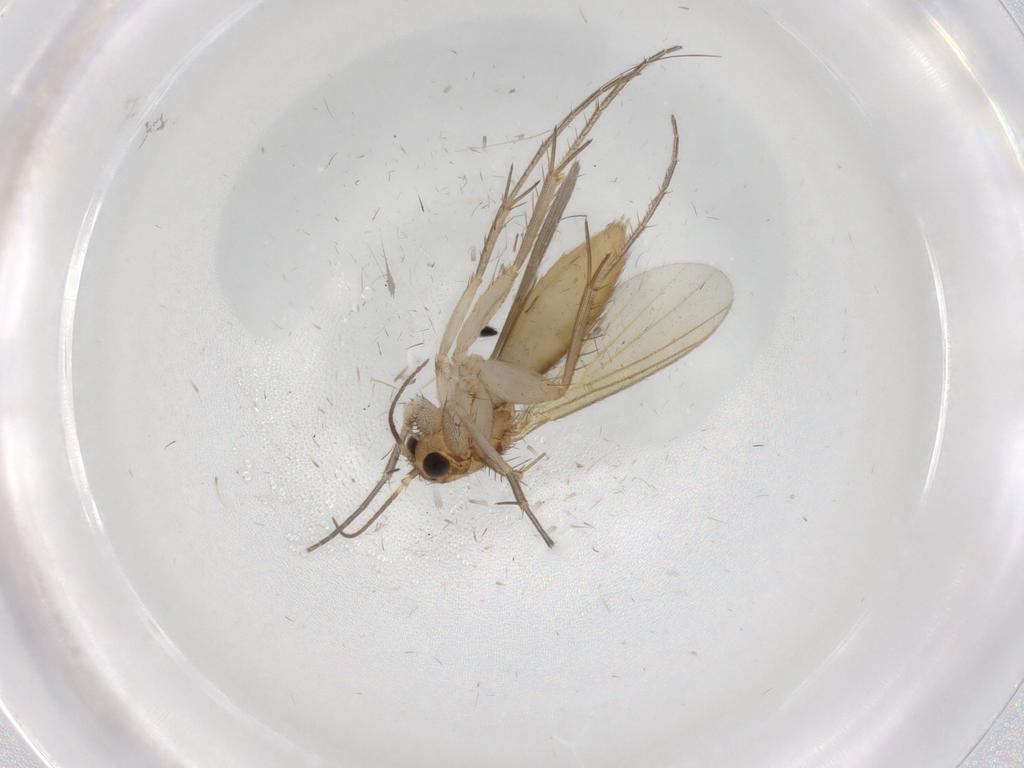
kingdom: Animalia
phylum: Arthropoda
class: Insecta
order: Diptera
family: Mycetophilidae
